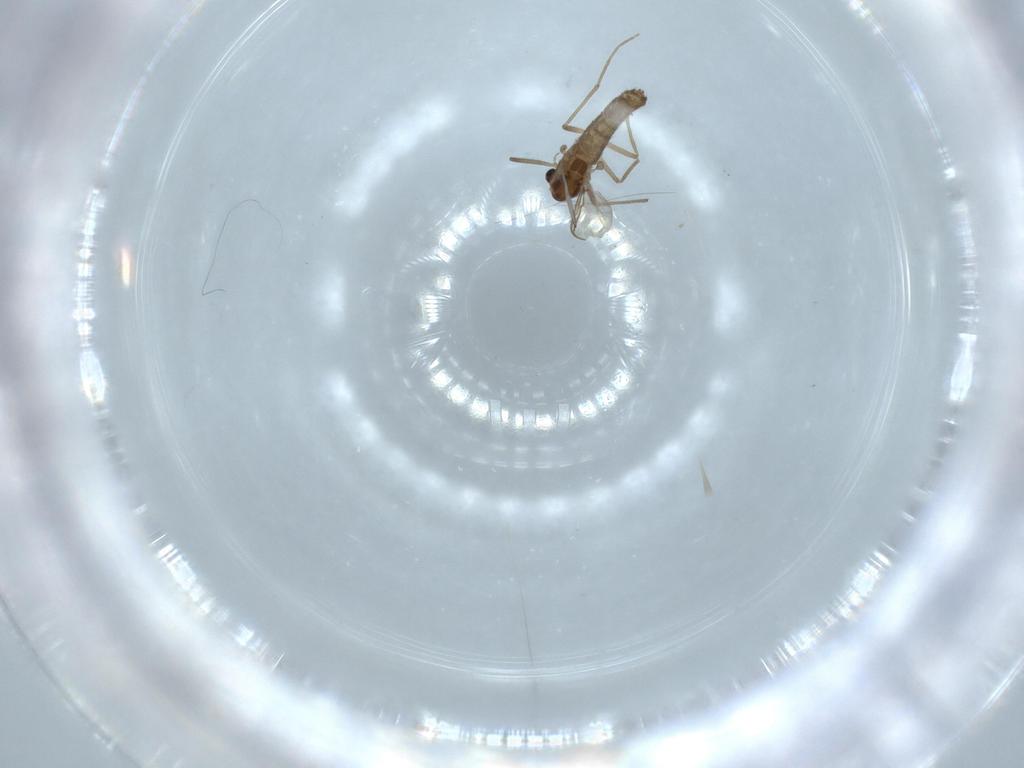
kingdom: Animalia
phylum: Arthropoda
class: Insecta
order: Diptera
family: Chironomidae
